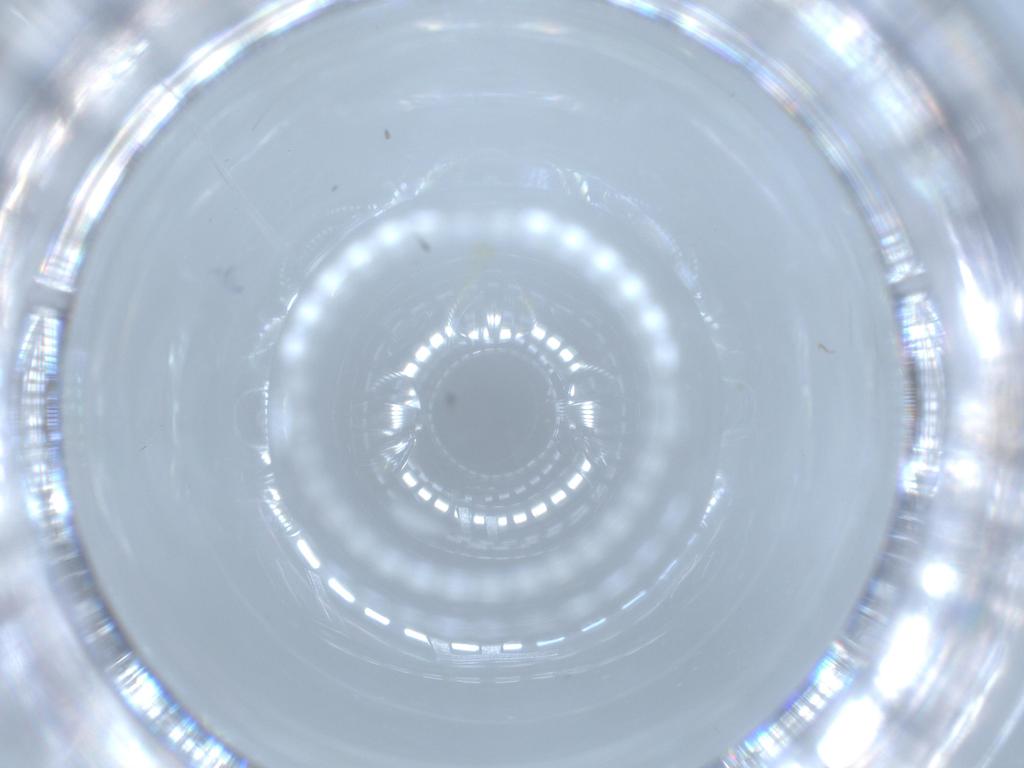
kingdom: Animalia
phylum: Arthropoda
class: Insecta
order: Diptera
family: Cecidomyiidae
